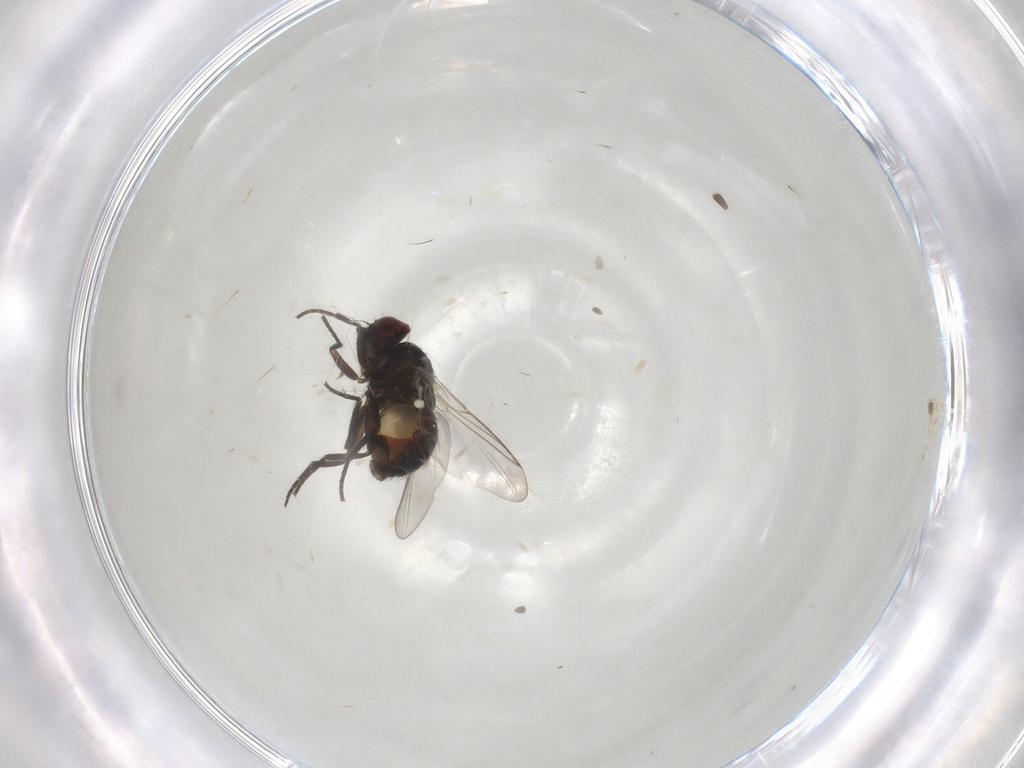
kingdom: Animalia
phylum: Arthropoda
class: Insecta
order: Diptera
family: Agromyzidae
